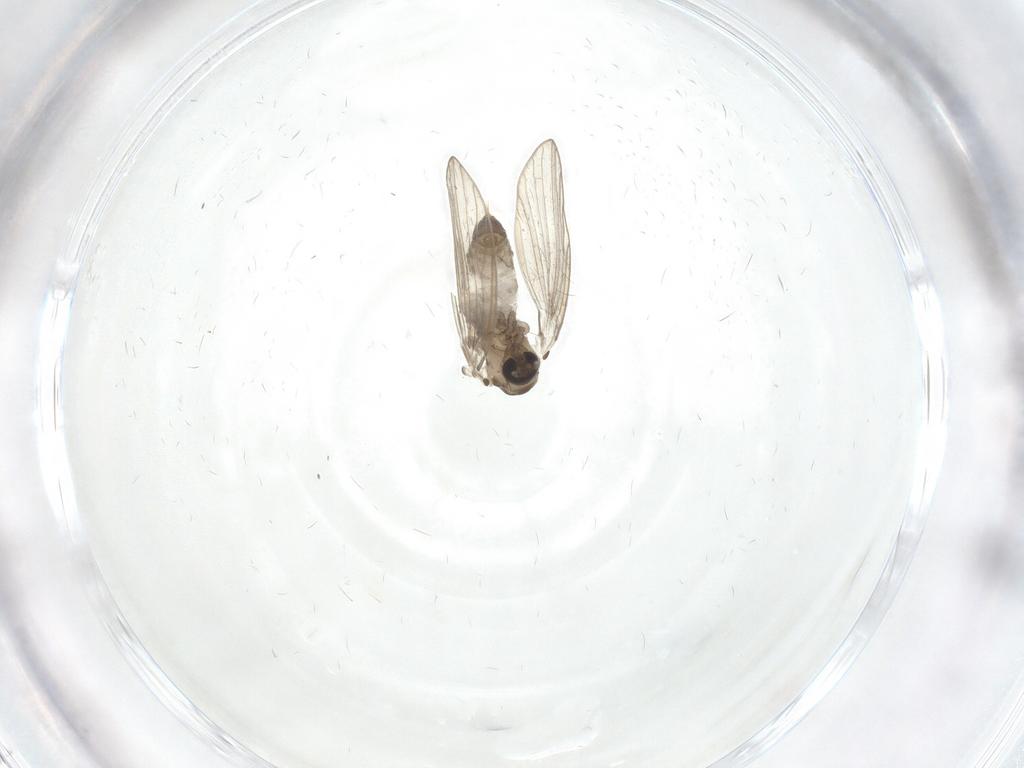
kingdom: Animalia
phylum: Arthropoda
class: Insecta
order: Diptera
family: Psychodidae
